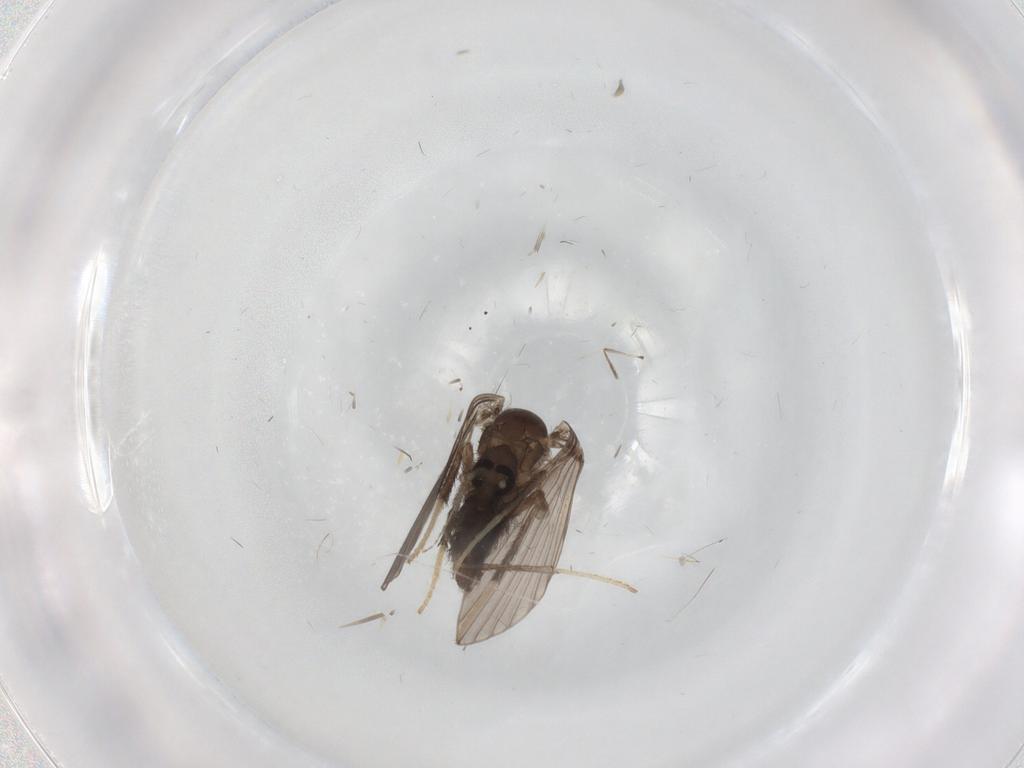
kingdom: Animalia
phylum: Arthropoda
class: Insecta
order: Diptera
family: Psychodidae
